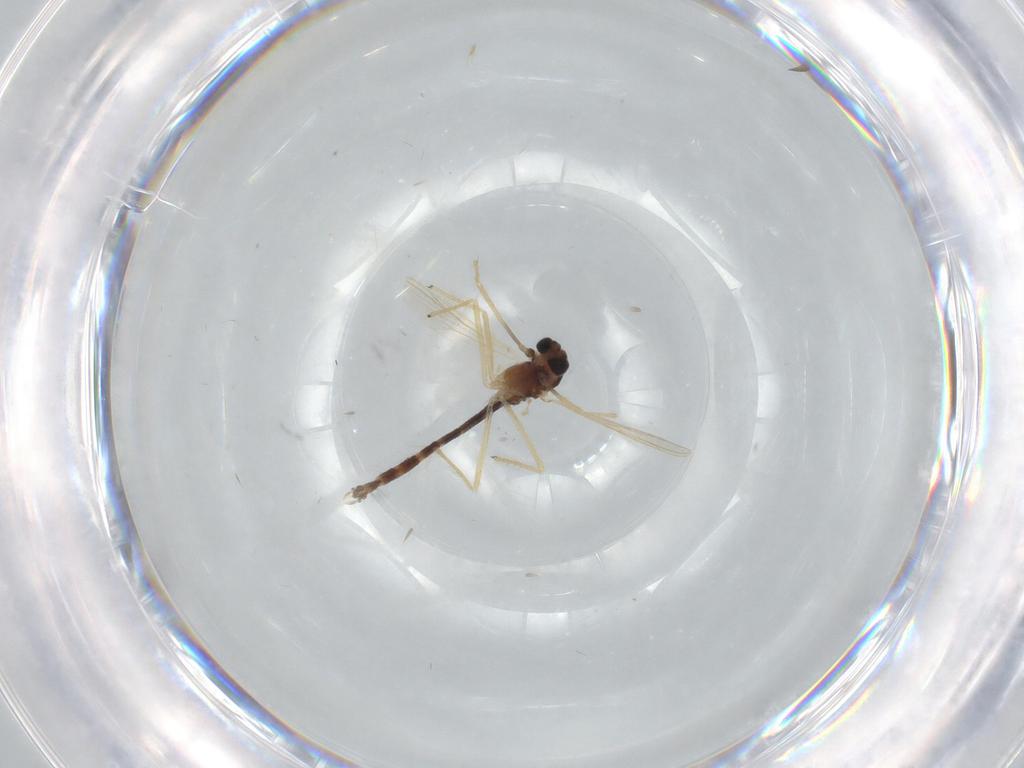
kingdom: Animalia
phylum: Arthropoda
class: Insecta
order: Diptera
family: Chironomidae
